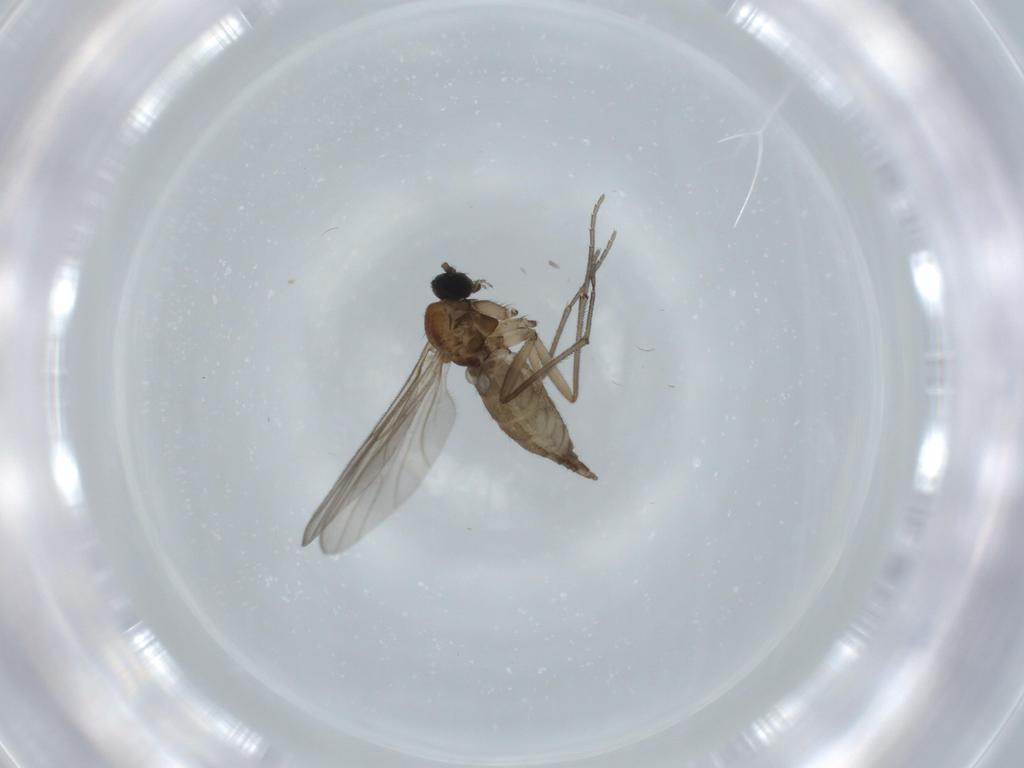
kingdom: Animalia
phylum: Arthropoda
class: Insecta
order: Diptera
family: Sciaridae
